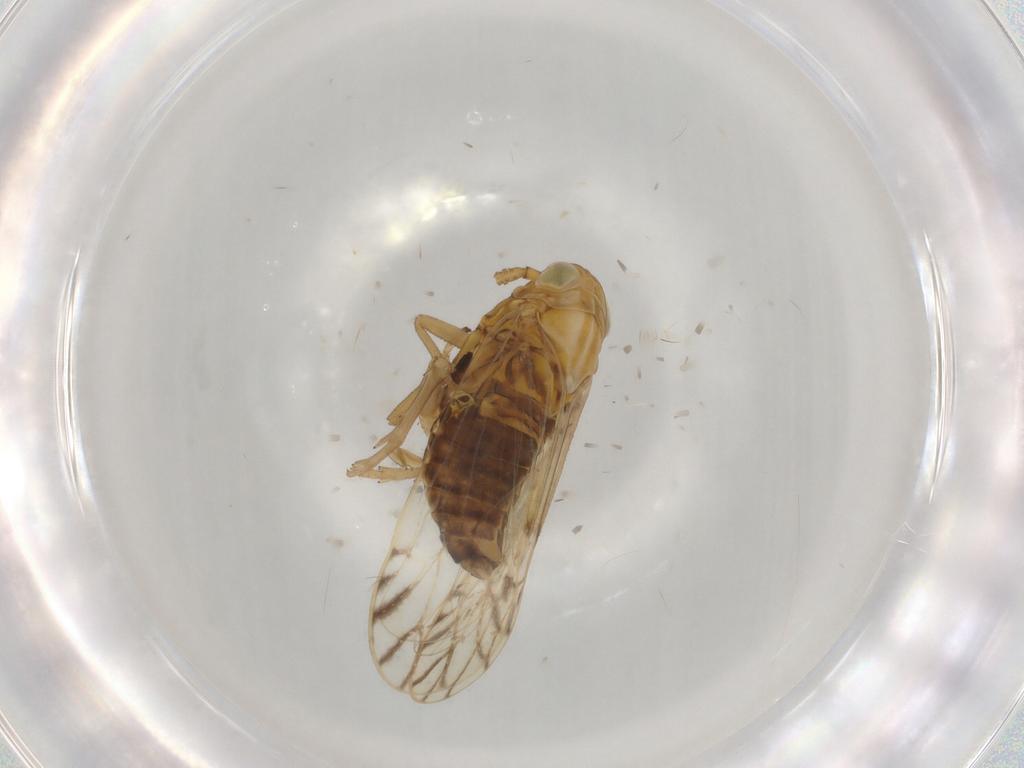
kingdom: Animalia
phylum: Arthropoda
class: Insecta
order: Hemiptera
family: Delphacidae
